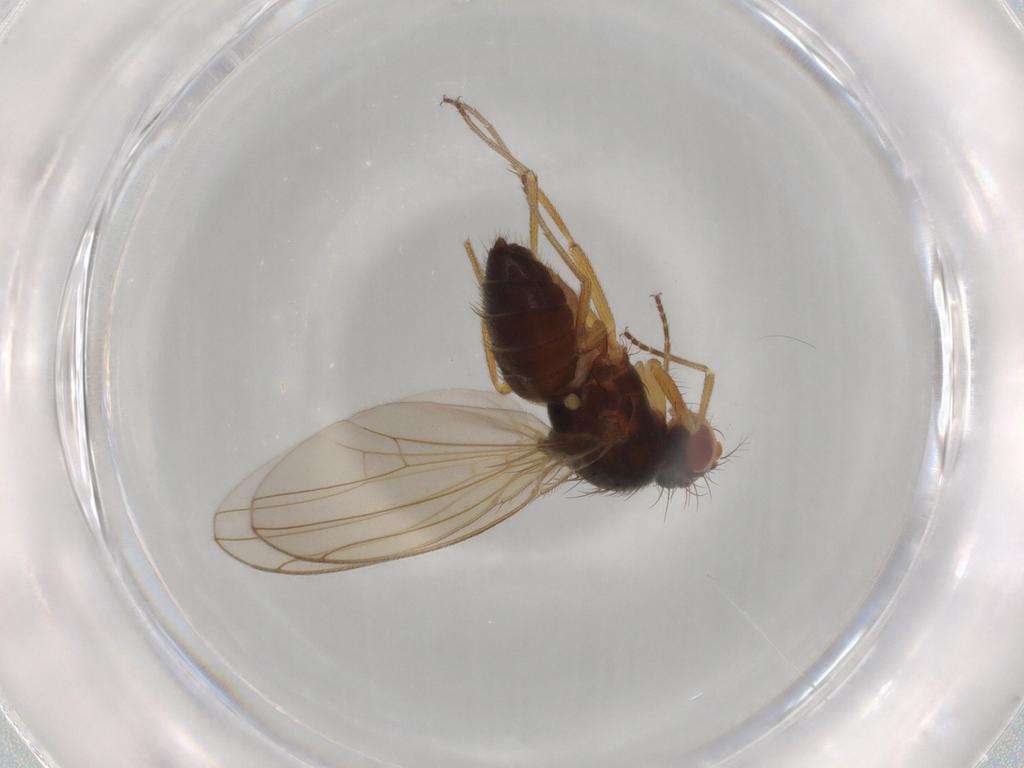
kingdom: Animalia
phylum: Arthropoda
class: Insecta
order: Diptera
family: Drosophilidae
